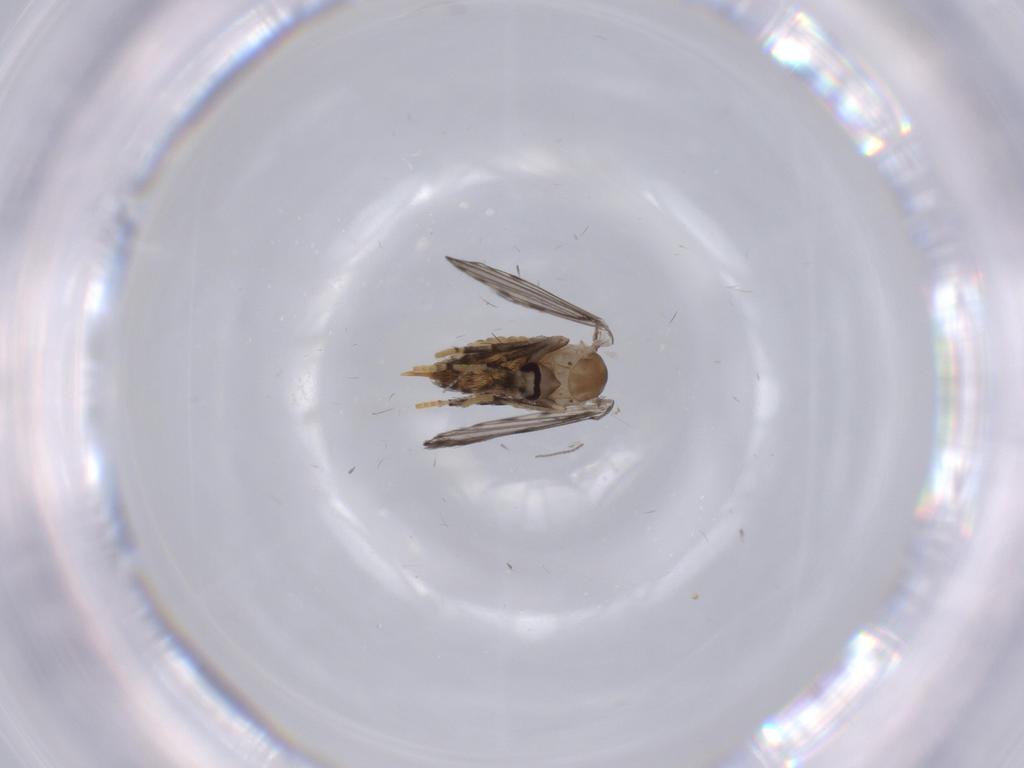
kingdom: Animalia
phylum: Arthropoda
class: Insecta
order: Diptera
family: Psychodidae
